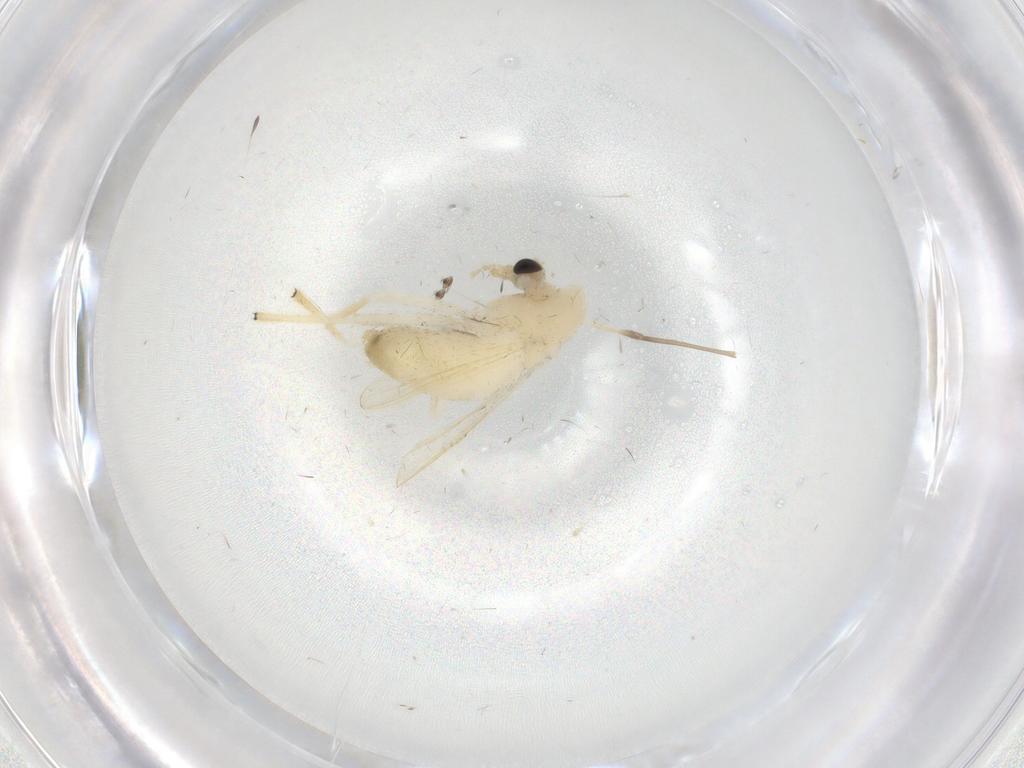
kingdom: Animalia
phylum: Arthropoda
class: Insecta
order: Diptera
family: Chironomidae
